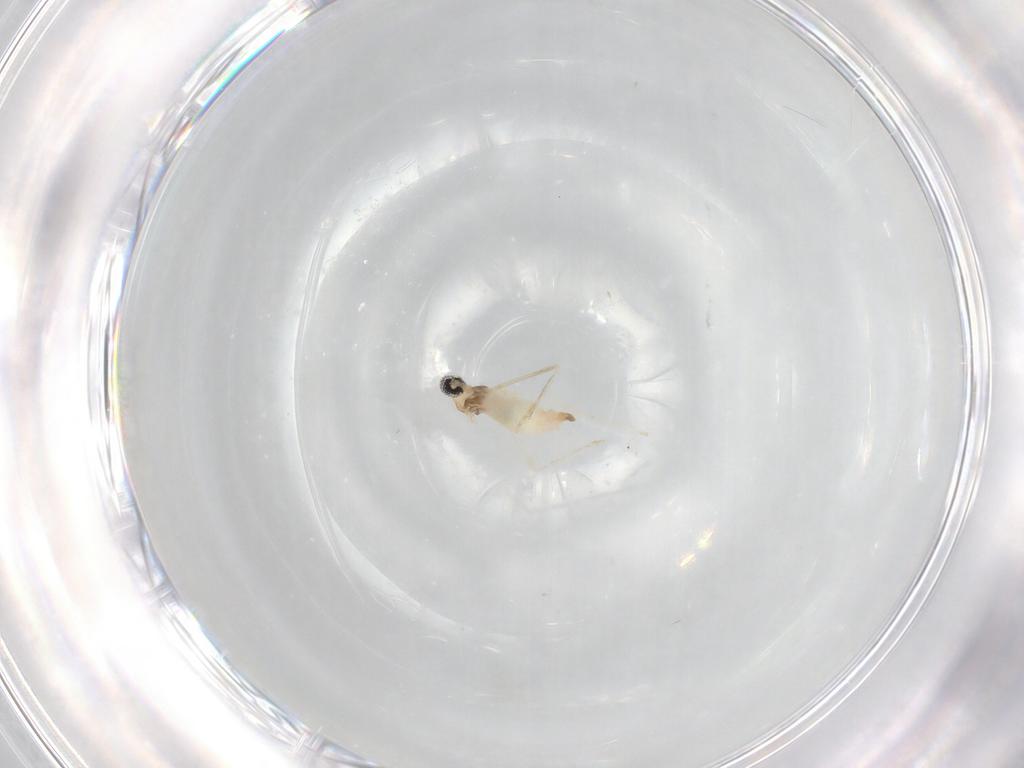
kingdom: Animalia
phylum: Arthropoda
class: Insecta
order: Diptera
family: Cecidomyiidae
